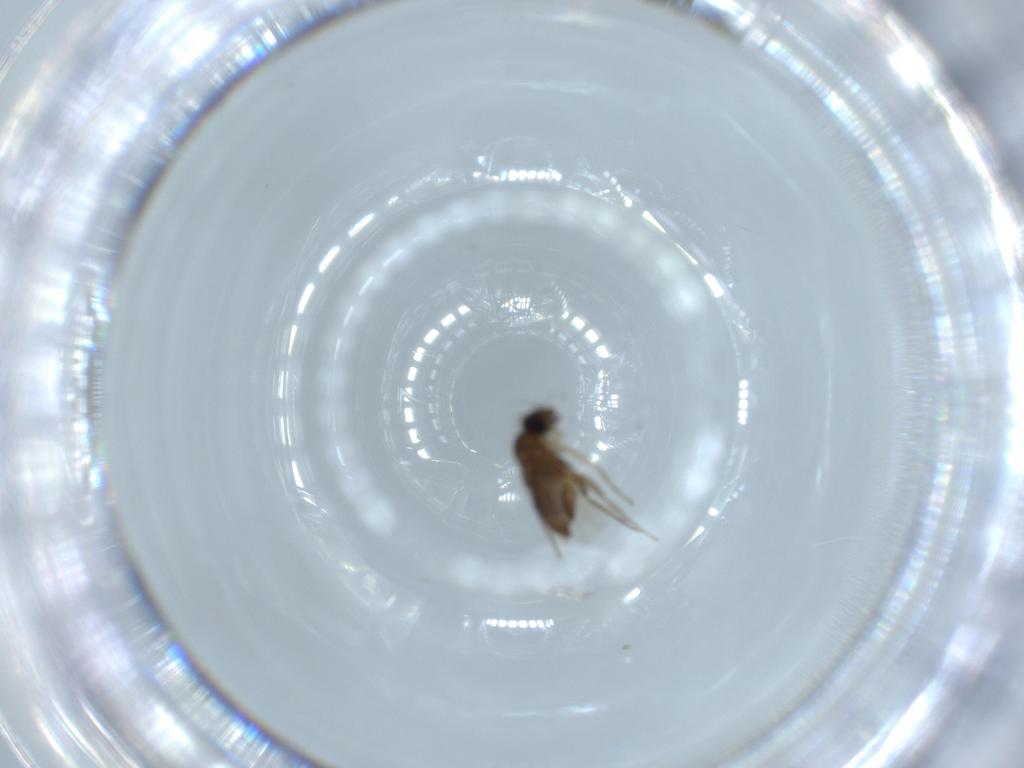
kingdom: Animalia
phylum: Arthropoda
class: Insecta
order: Diptera
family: Phoridae
